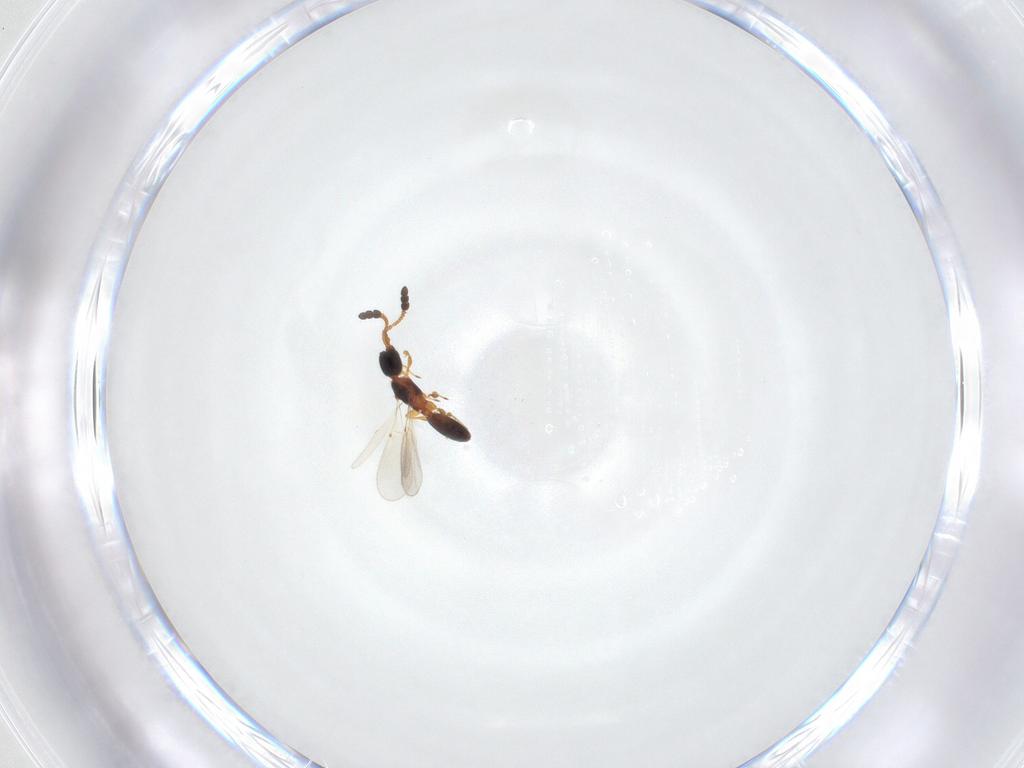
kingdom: Animalia
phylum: Arthropoda
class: Insecta
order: Hymenoptera
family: Diapriidae
